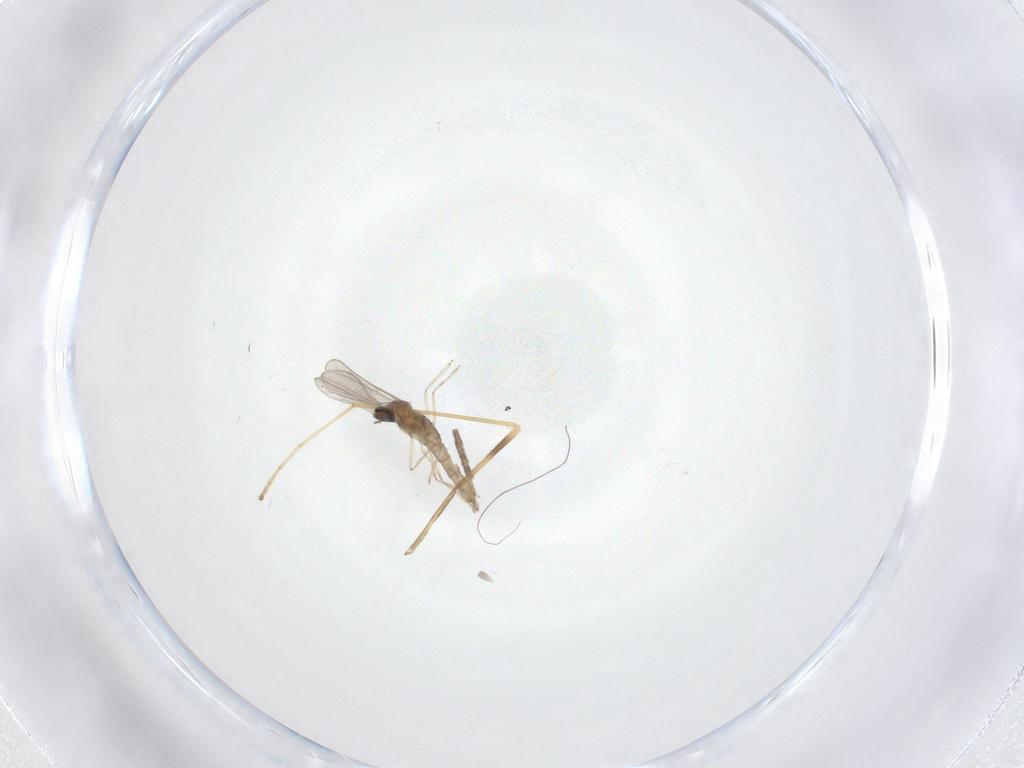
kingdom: Animalia
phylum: Arthropoda
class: Insecta
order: Diptera
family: Limoniidae
